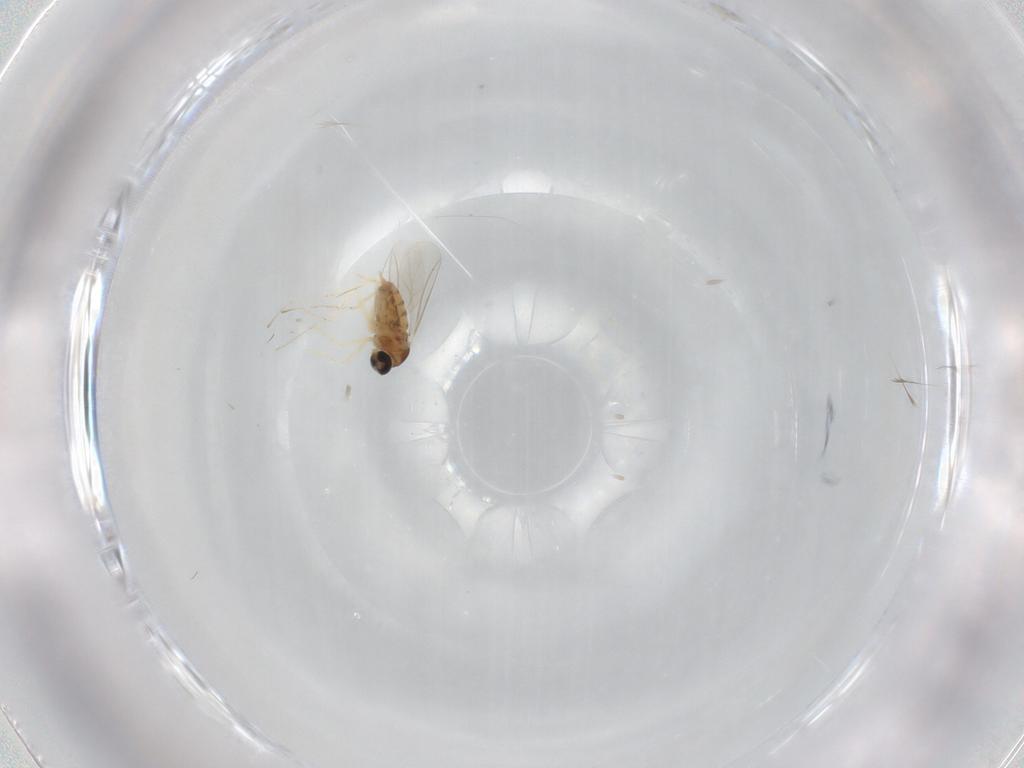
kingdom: Animalia
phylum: Arthropoda
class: Insecta
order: Diptera
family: Cecidomyiidae
